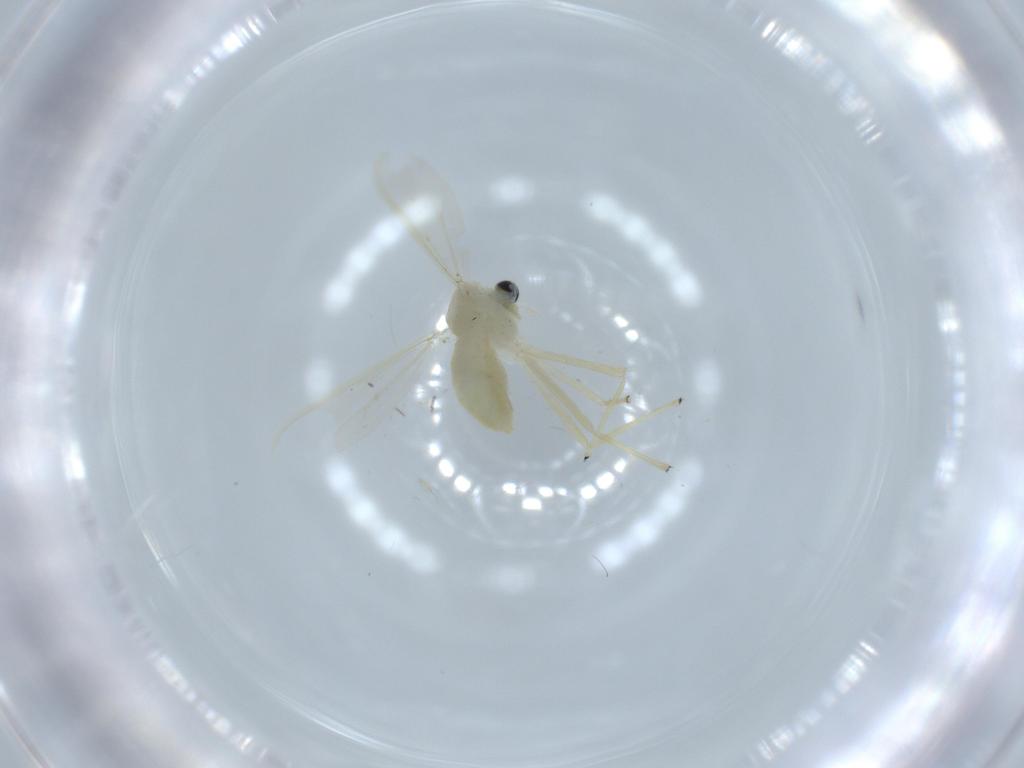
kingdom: Animalia
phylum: Arthropoda
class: Insecta
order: Diptera
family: Chironomidae
